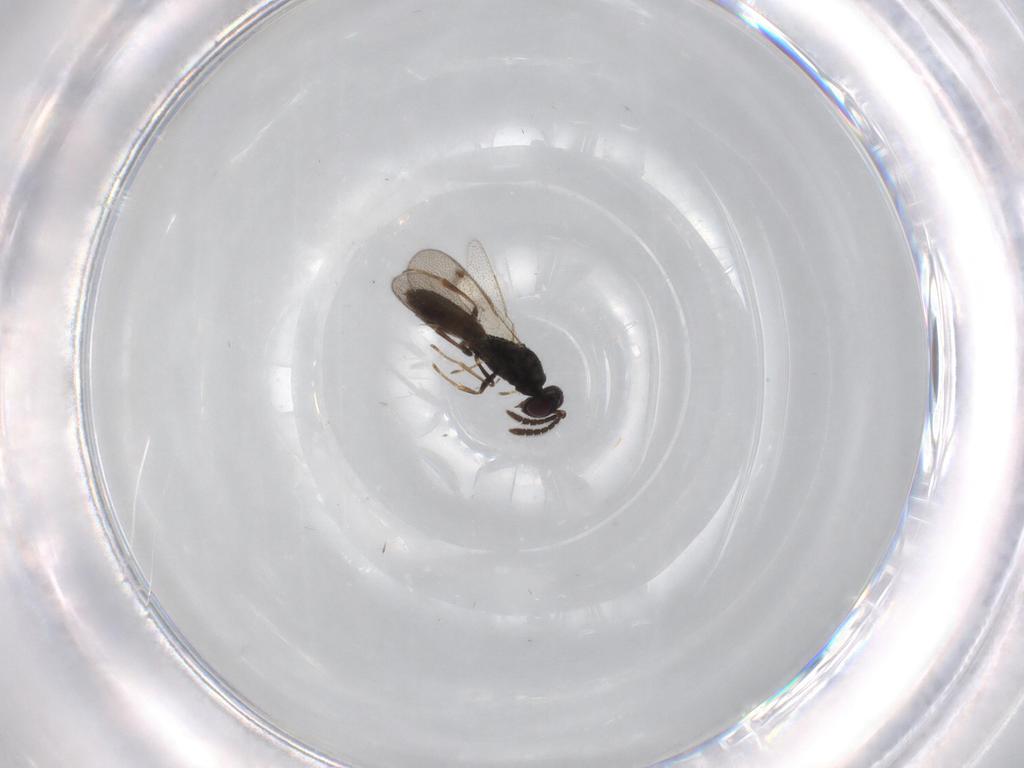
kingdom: Animalia
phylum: Arthropoda
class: Insecta
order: Hymenoptera
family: Pteromalidae
